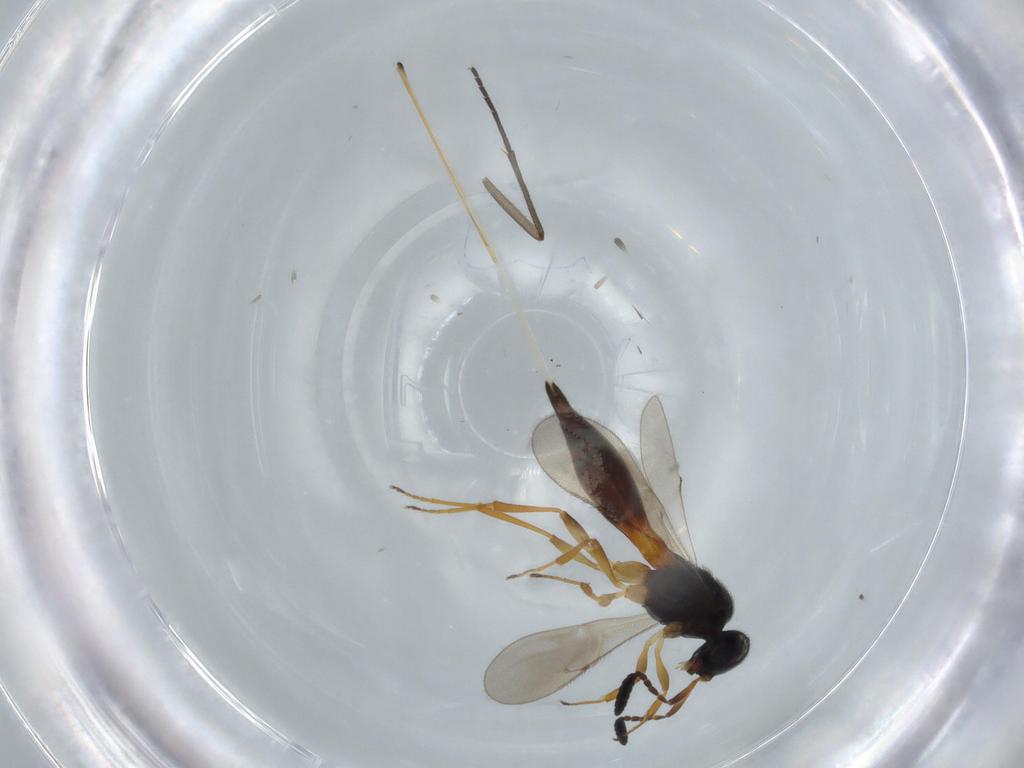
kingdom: Animalia
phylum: Arthropoda
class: Insecta
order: Hymenoptera
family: Scelionidae
